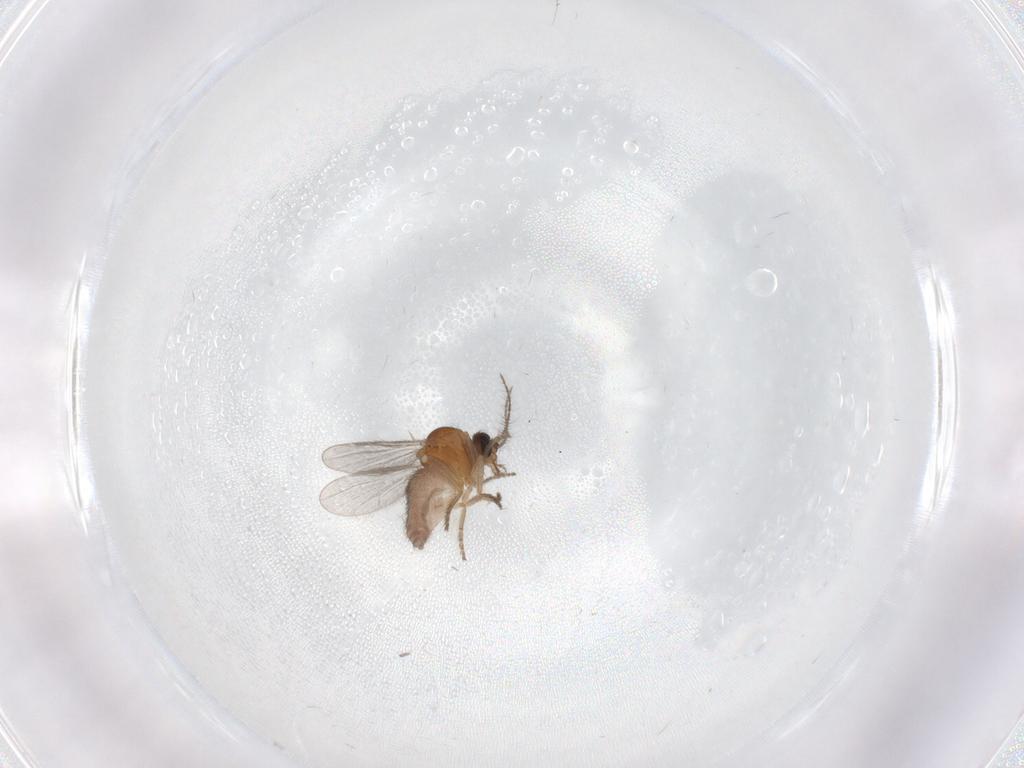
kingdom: Animalia
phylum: Arthropoda
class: Insecta
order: Diptera
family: Ceratopogonidae
